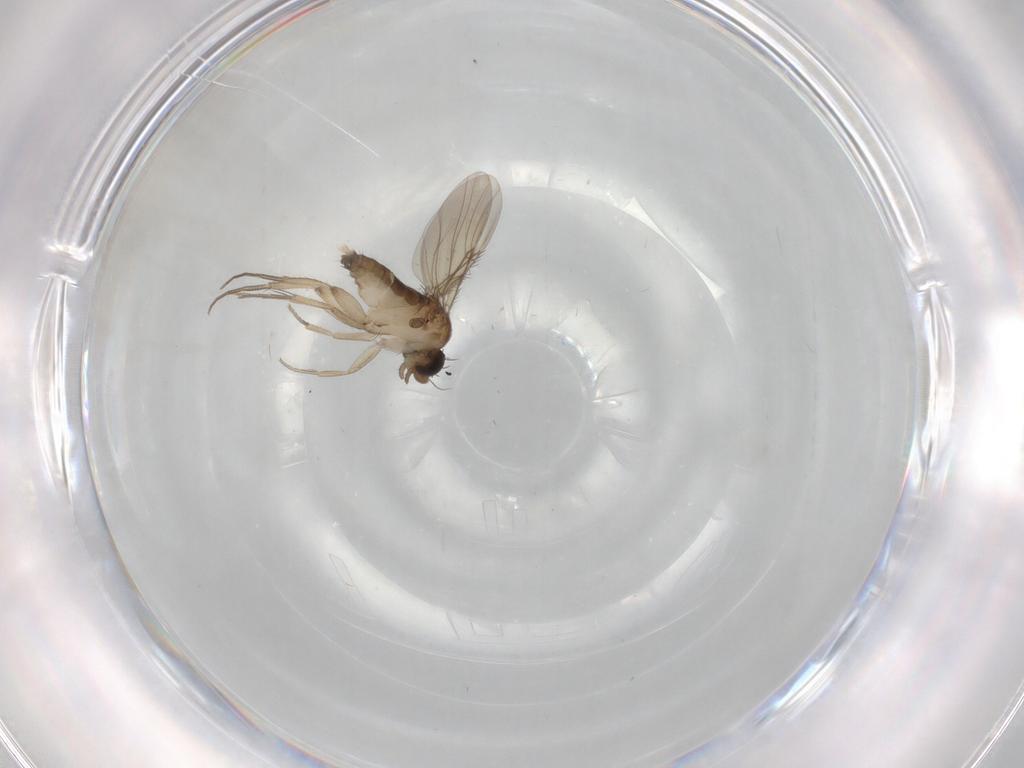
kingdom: Animalia
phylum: Arthropoda
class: Insecta
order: Diptera
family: Phoridae
